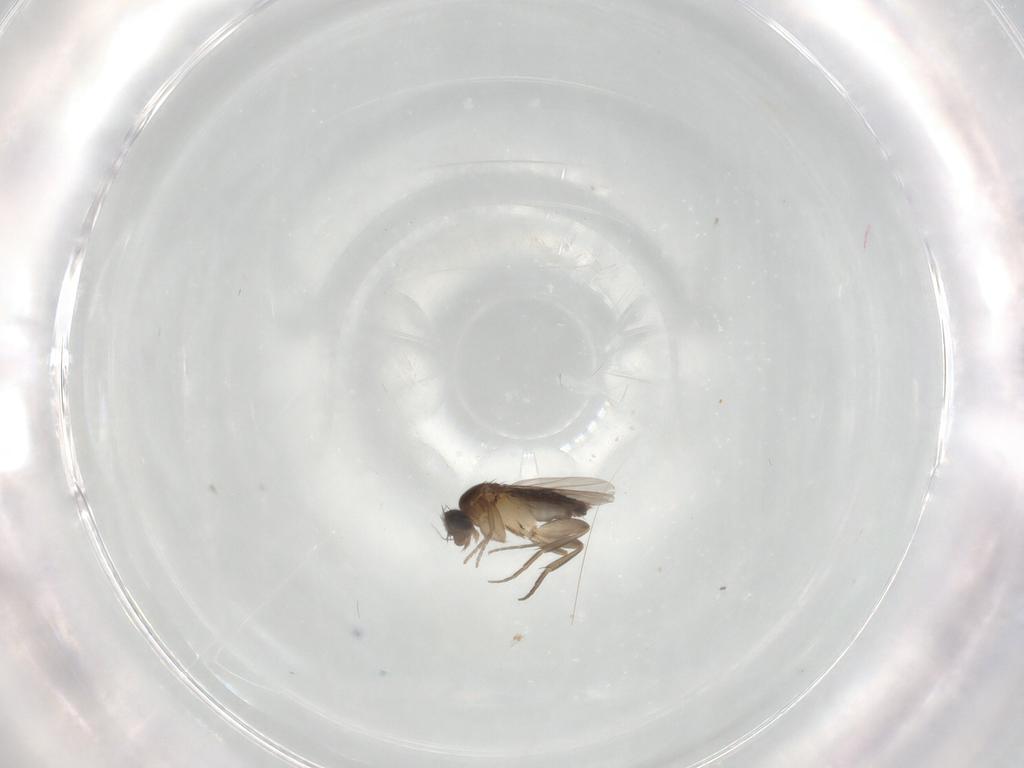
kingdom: Animalia
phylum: Arthropoda
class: Insecta
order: Diptera
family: Phoridae
